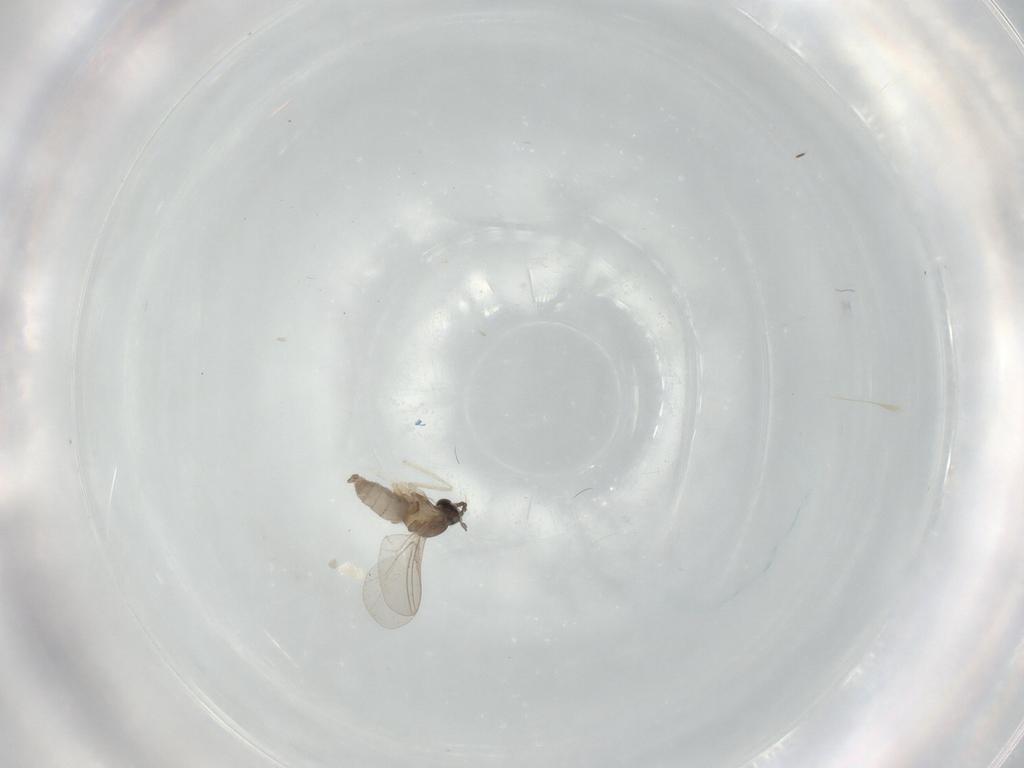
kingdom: Animalia
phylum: Arthropoda
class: Insecta
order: Diptera
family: Cecidomyiidae
